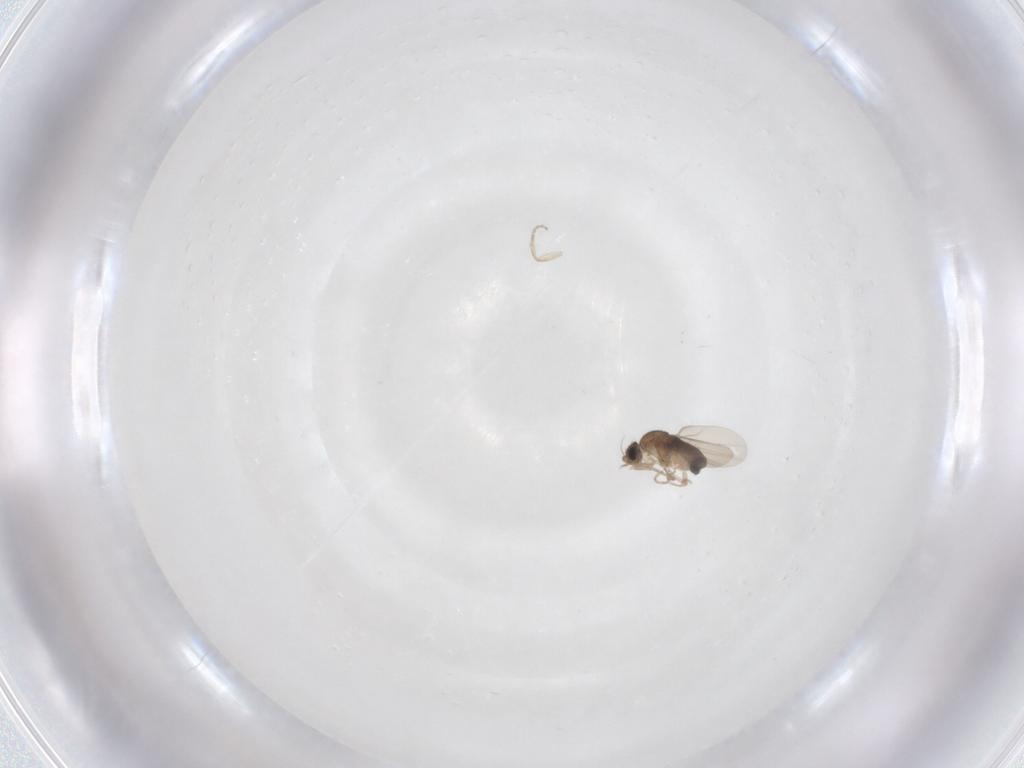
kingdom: Animalia
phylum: Arthropoda
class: Insecta
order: Diptera
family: Phoridae
